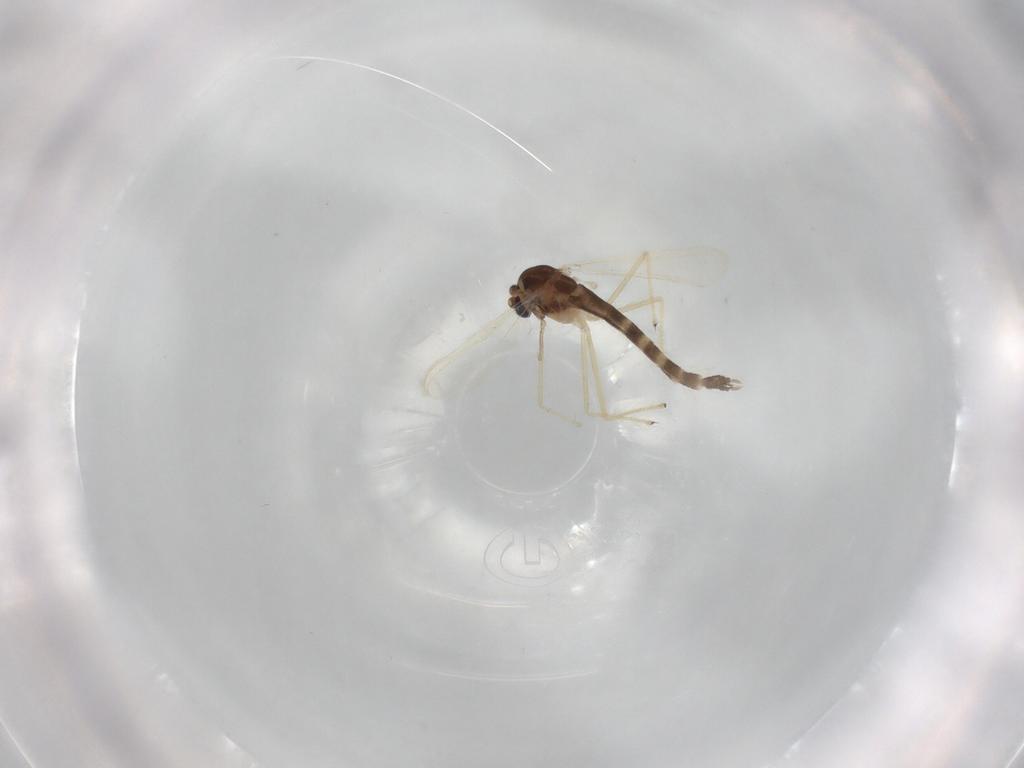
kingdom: Animalia
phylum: Arthropoda
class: Insecta
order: Diptera
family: Chironomidae
